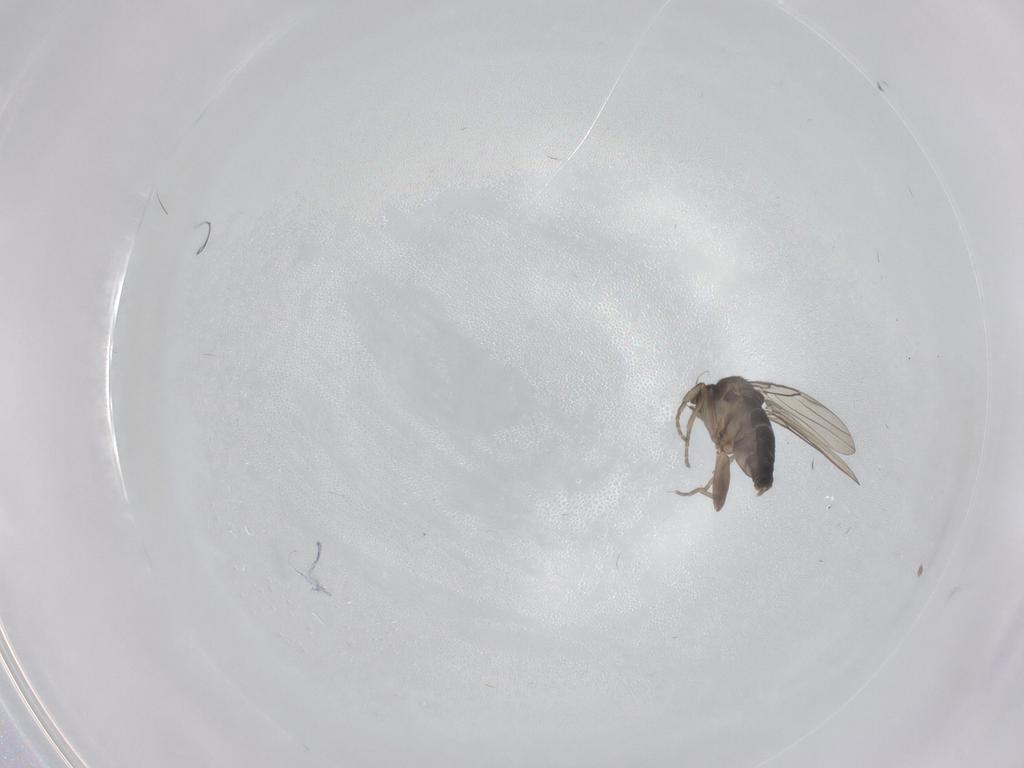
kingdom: Animalia
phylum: Arthropoda
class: Insecta
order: Diptera
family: Phoridae
